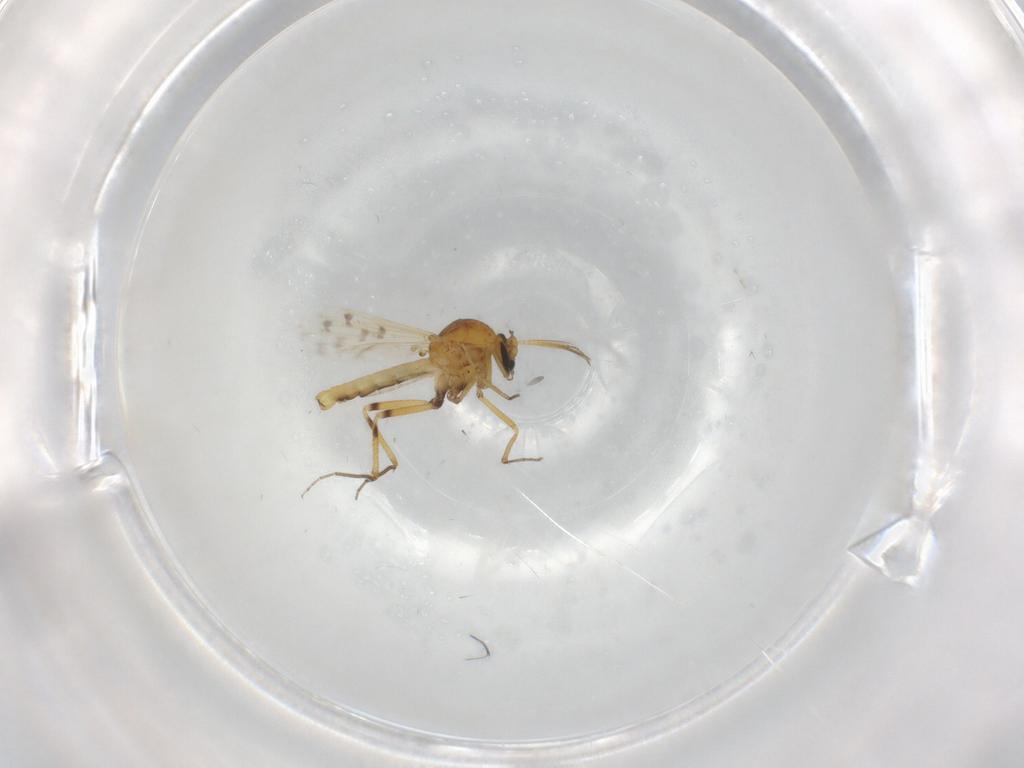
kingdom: Animalia
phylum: Arthropoda
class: Insecta
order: Diptera
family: Ceratopogonidae
